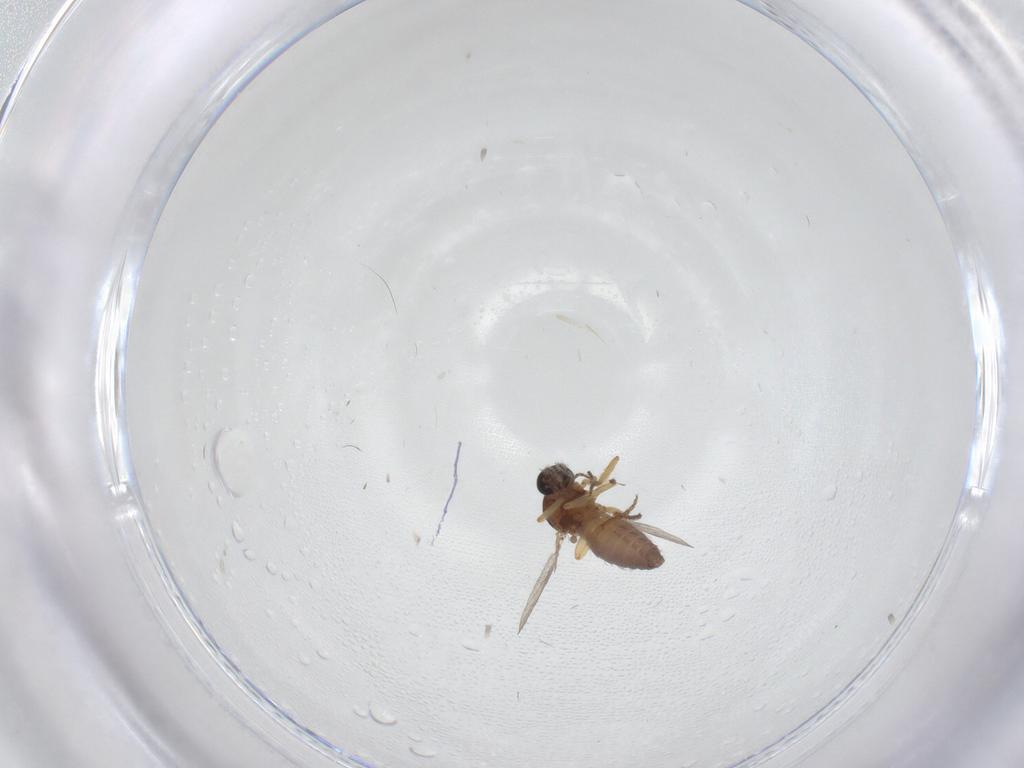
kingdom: Animalia
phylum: Arthropoda
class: Insecta
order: Diptera
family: Ceratopogonidae
